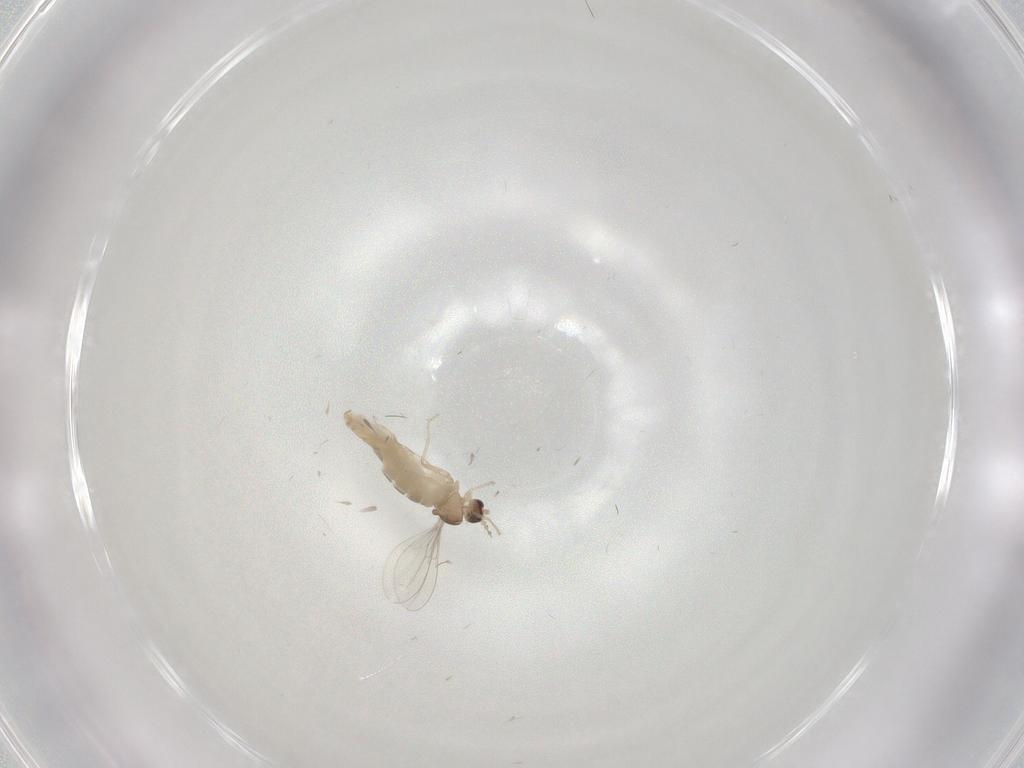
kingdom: Animalia
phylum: Arthropoda
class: Insecta
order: Diptera
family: Cecidomyiidae
